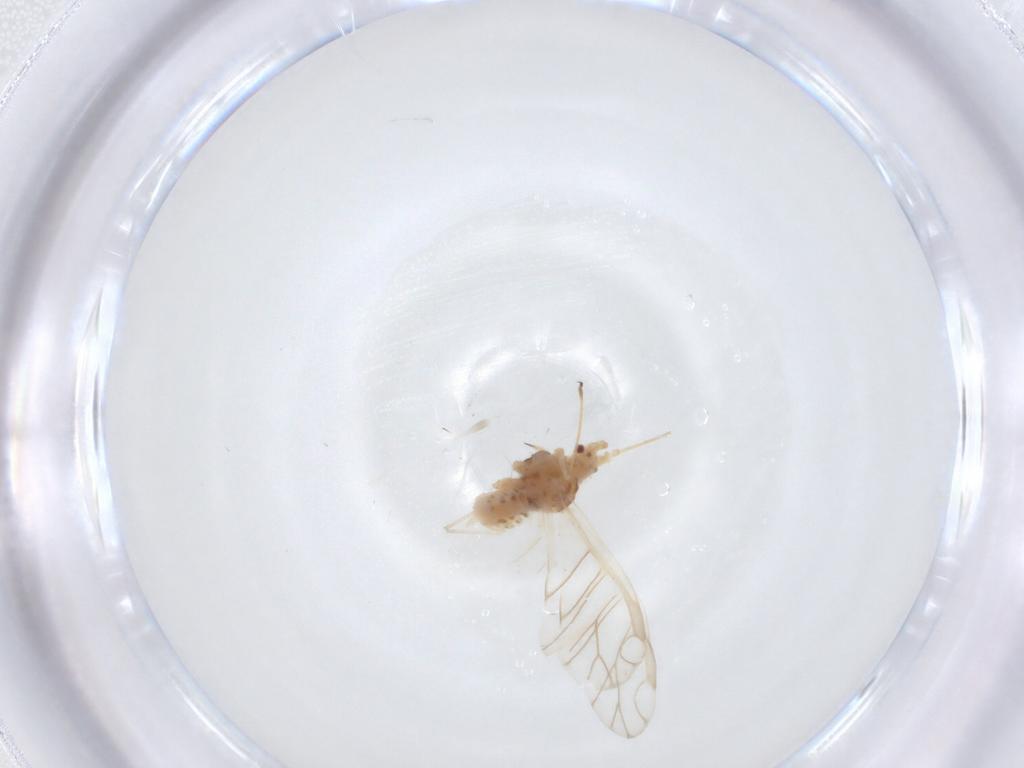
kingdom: Animalia
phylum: Arthropoda
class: Insecta
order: Hemiptera
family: Aphididae
